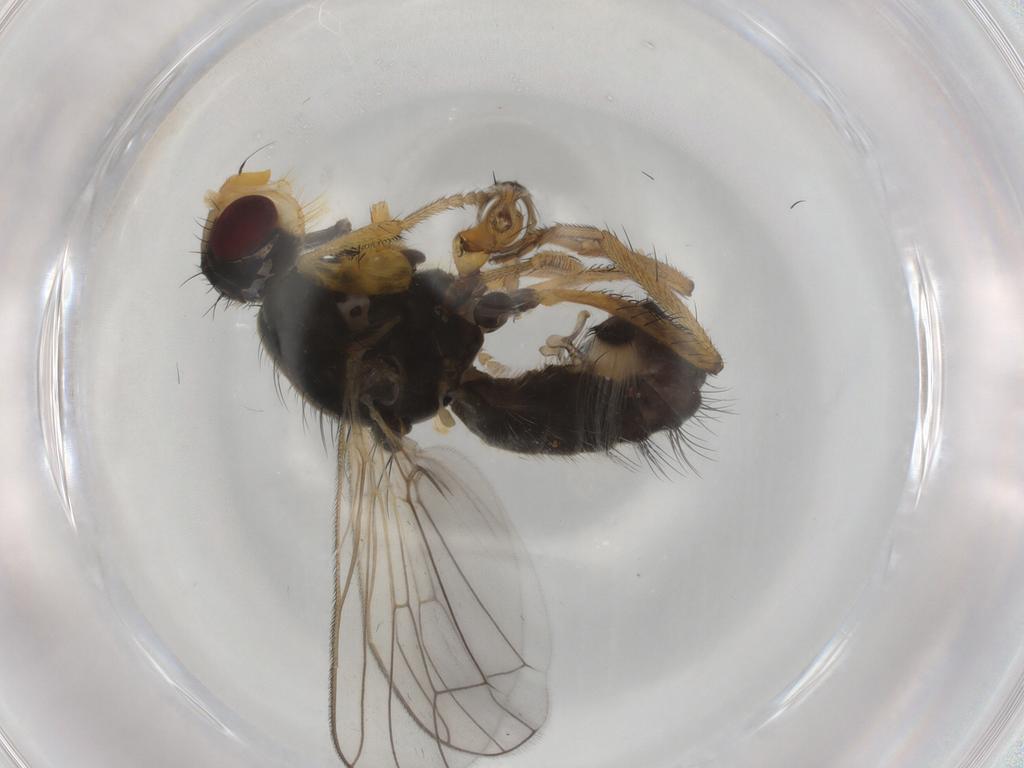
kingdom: Animalia
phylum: Arthropoda
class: Insecta
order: Diptera
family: Scathophagidae
